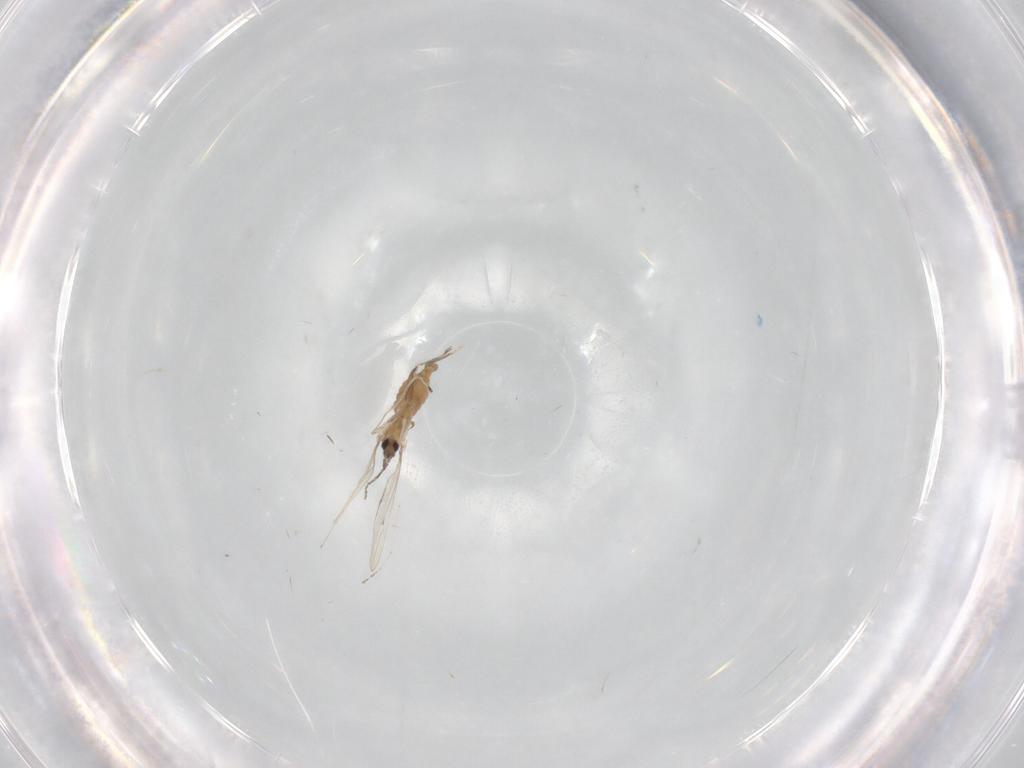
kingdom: Animalia
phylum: Arthropoda
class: Insecta
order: Diptera
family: Cecidomyiidae
